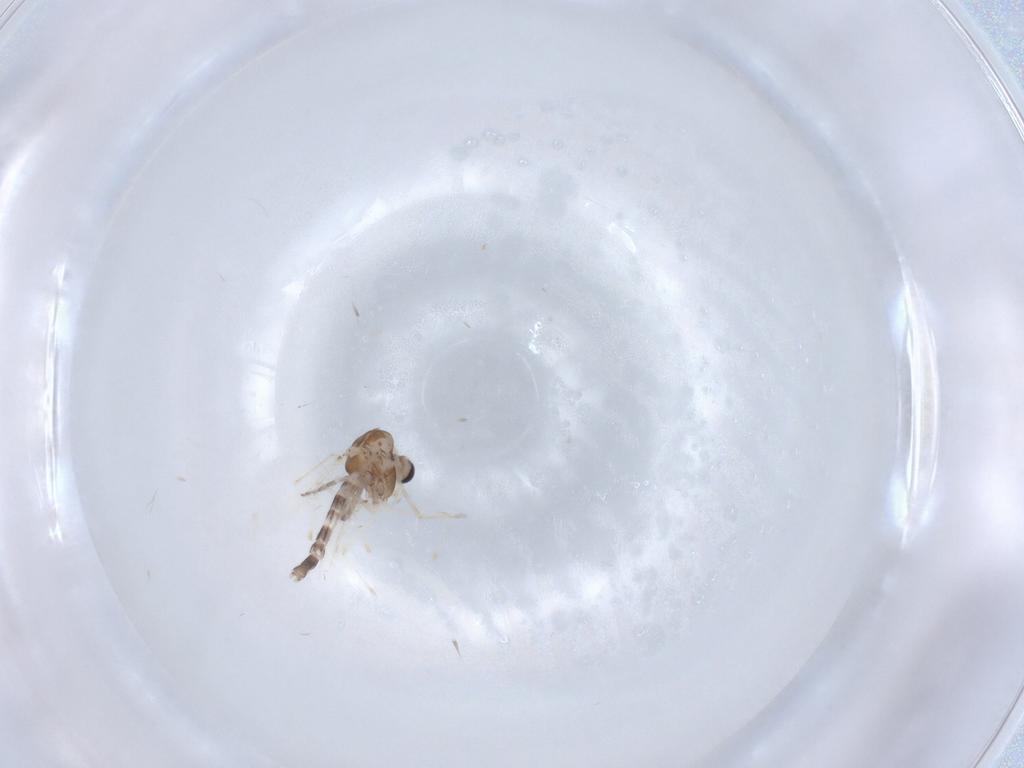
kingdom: Animalia
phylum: Arthropoda
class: Insecta
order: Diptera
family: Chironomidae
